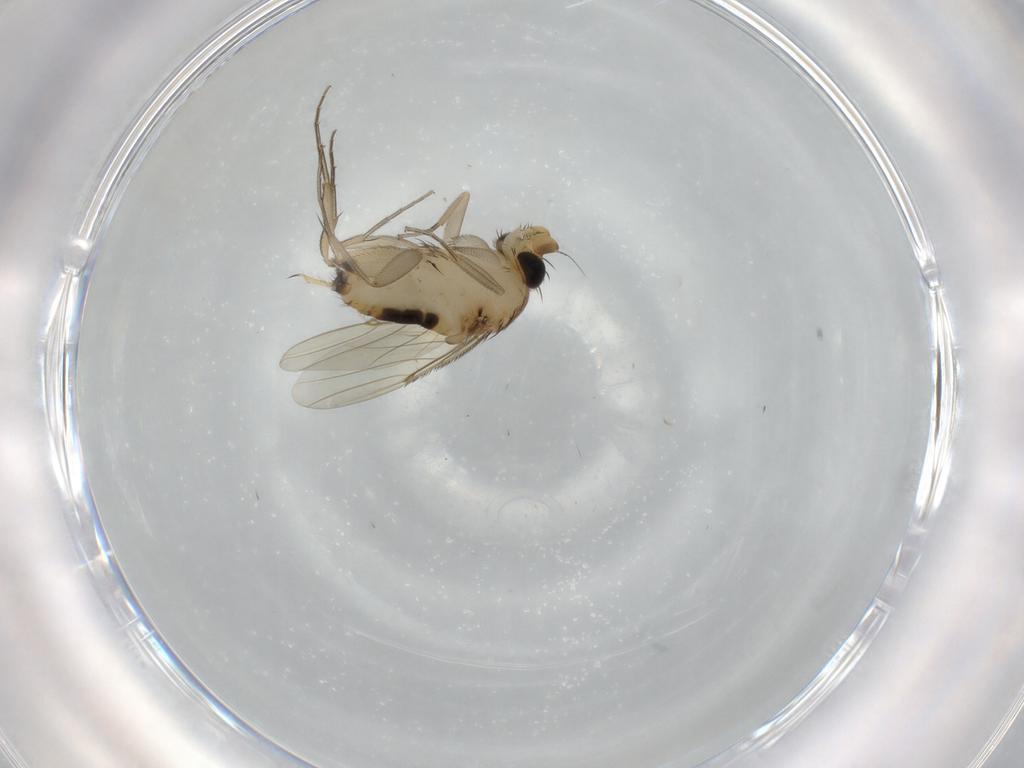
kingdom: Animalia
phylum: Arthropoda
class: Insecta
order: Diptera
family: Phoridae
